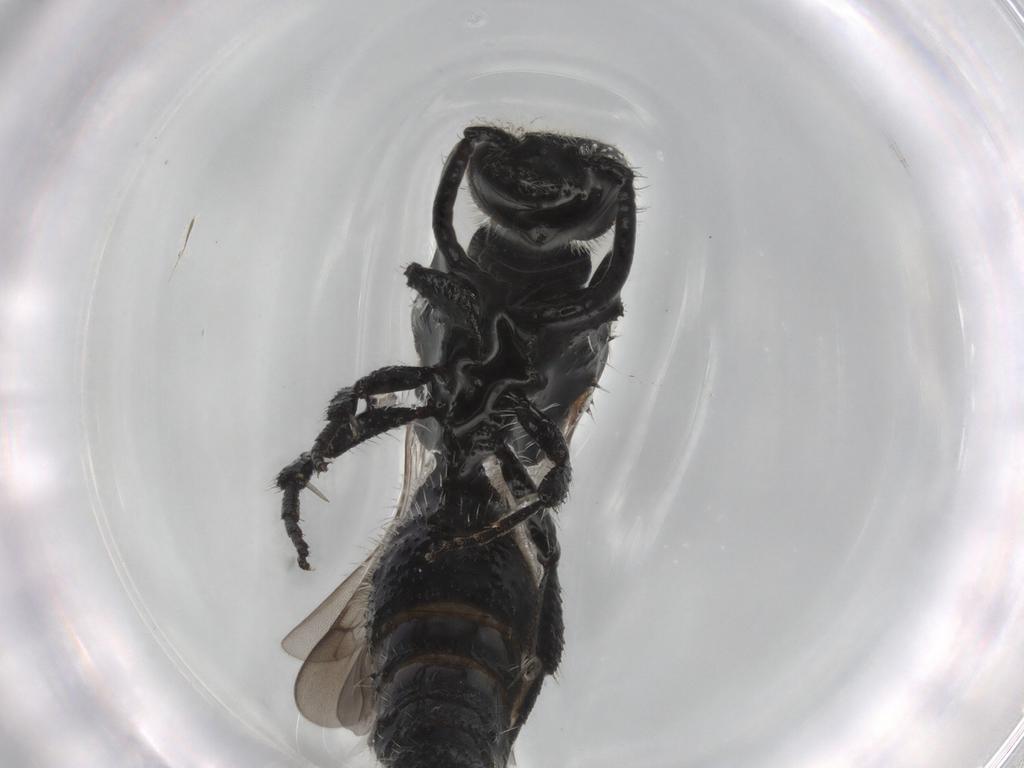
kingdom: Animalia
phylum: Arthropoda
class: Insecta
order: Hymenoptera
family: Mutillidae
